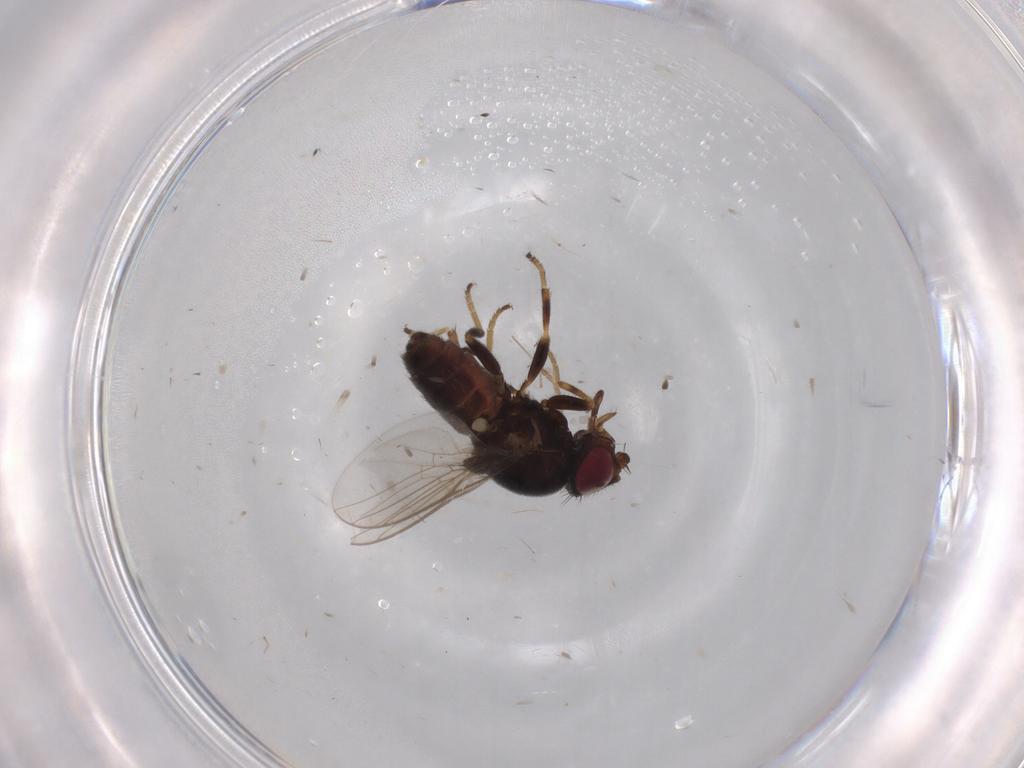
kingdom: Animalia
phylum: Arthropoda
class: Insecta
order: Diptera
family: Chloropidae
